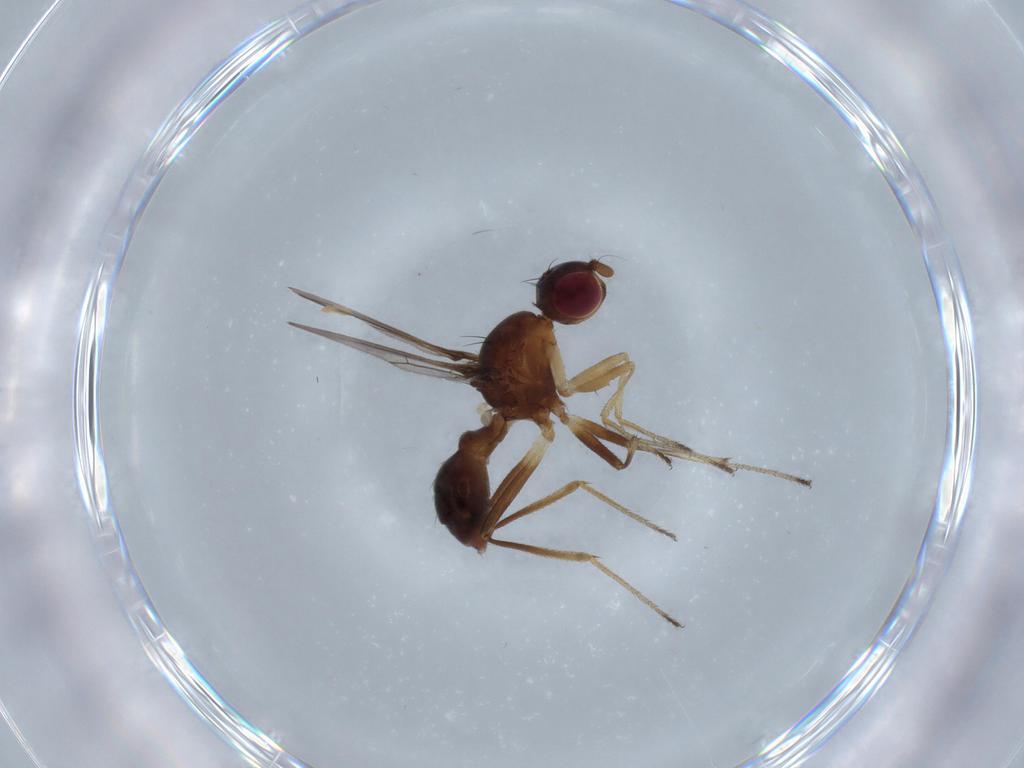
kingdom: Animalia
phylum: Arthropoda
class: Insecta
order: Diptera
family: Sepsidae
